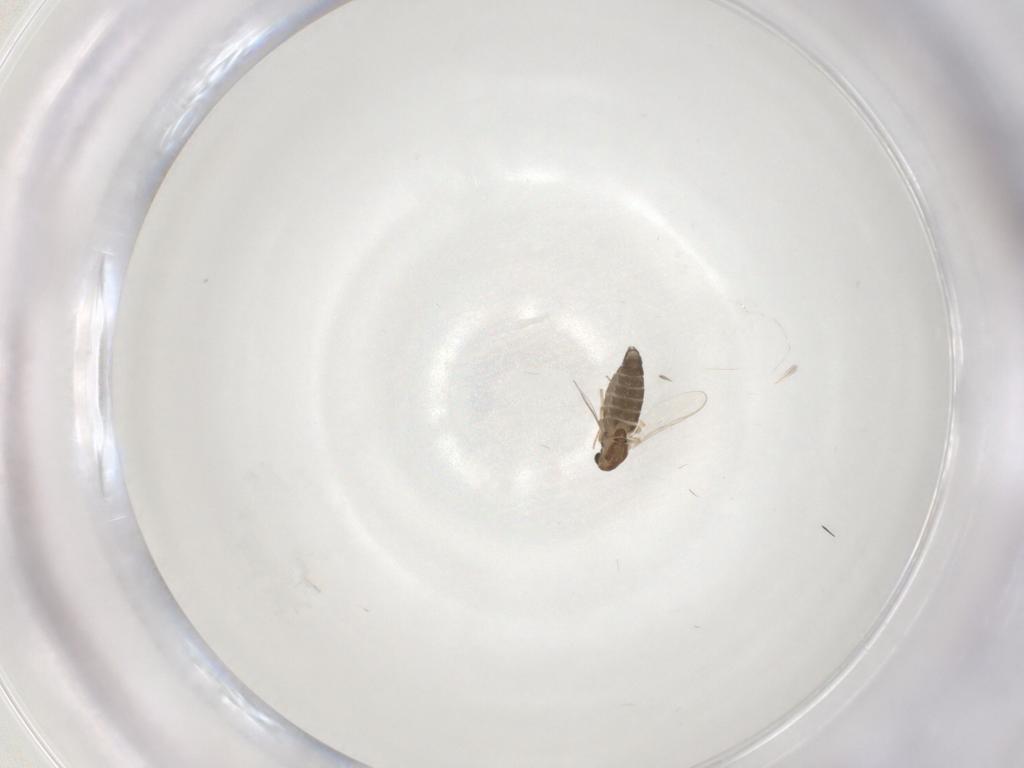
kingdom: Animalia
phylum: Arthropoda
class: Insecta
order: Diptera
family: Chironomidae
